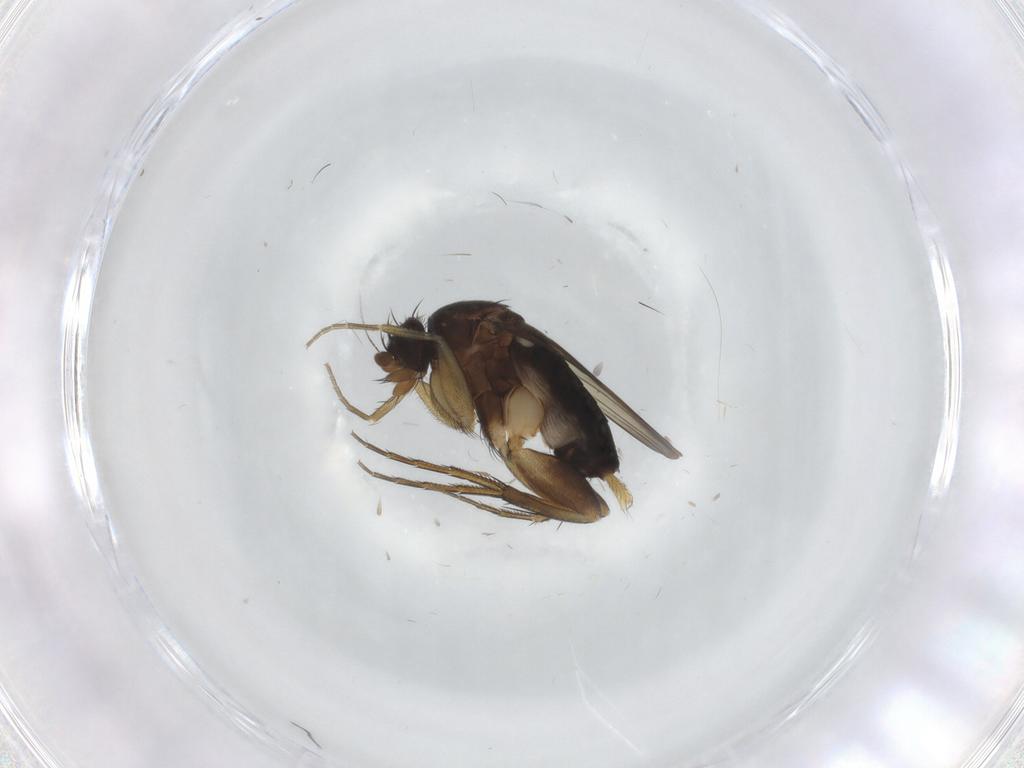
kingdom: Animalia
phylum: Arthropoda
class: Insecta
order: Diptera
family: Phoridae
